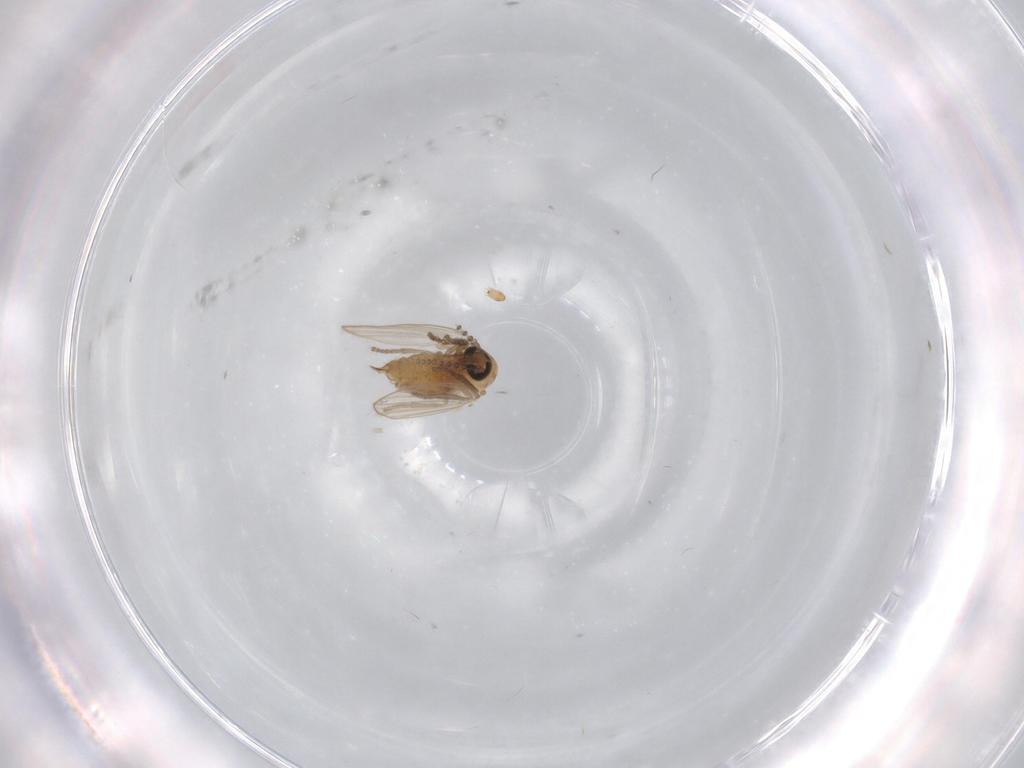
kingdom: Animalia
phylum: Arthropoda
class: Insecta
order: Diptera
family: Psychodidae
